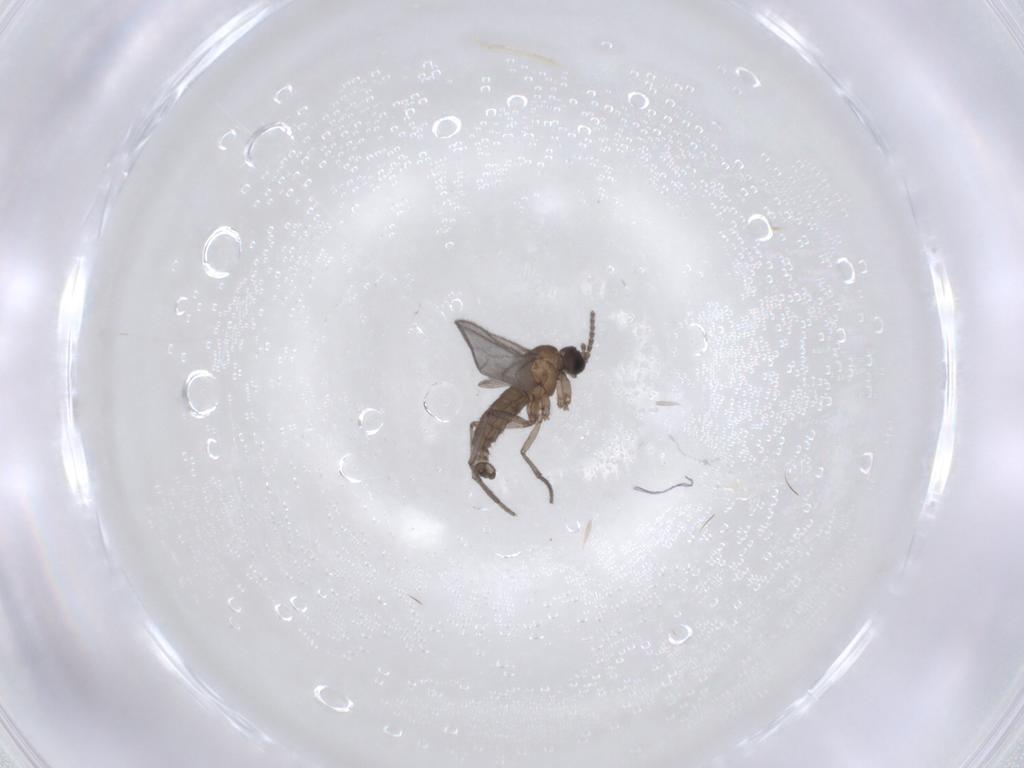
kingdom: Animalia
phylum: Arthropoda
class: Insecta
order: Diptera
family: Sciaridae
